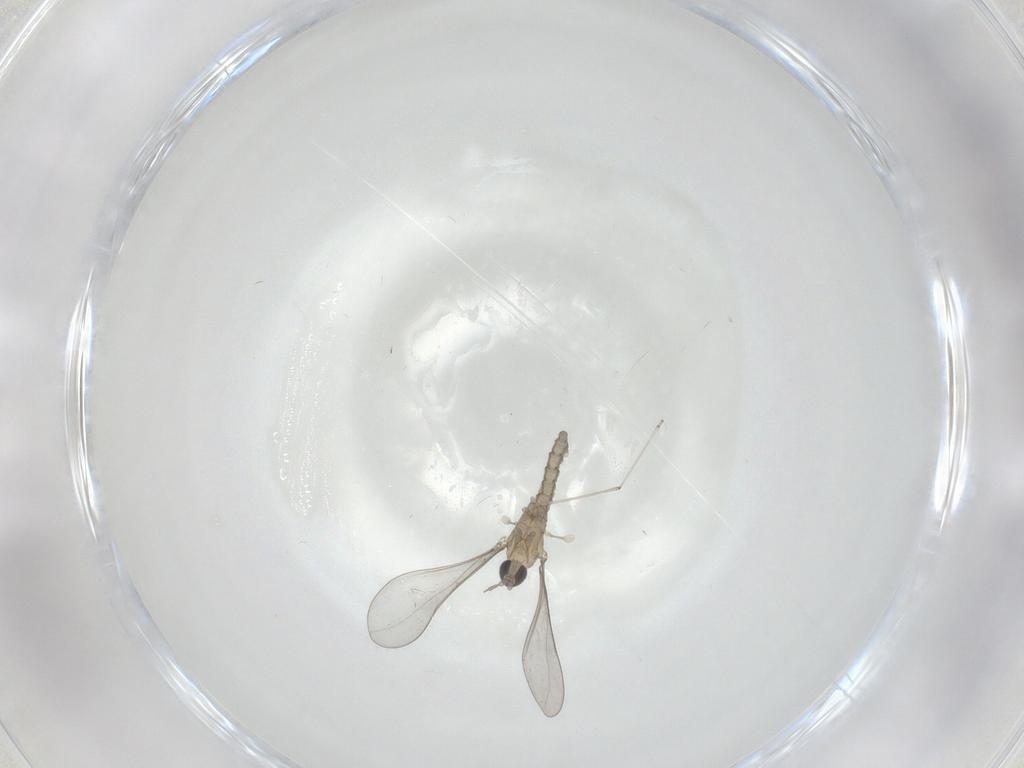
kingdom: Animalia
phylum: Arthropoda
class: Insecta
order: Diptera
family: Cecidomyiidae
